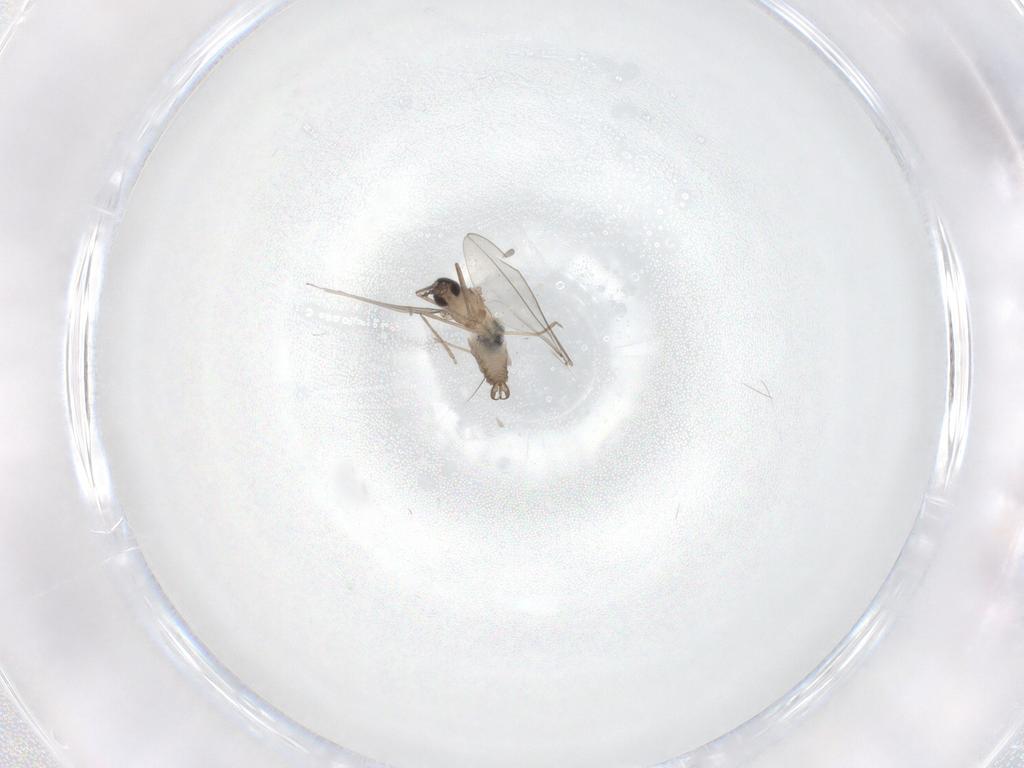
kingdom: Animalia
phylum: Arthropoda
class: Insecta
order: Diptera
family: Cecidomyiidae
